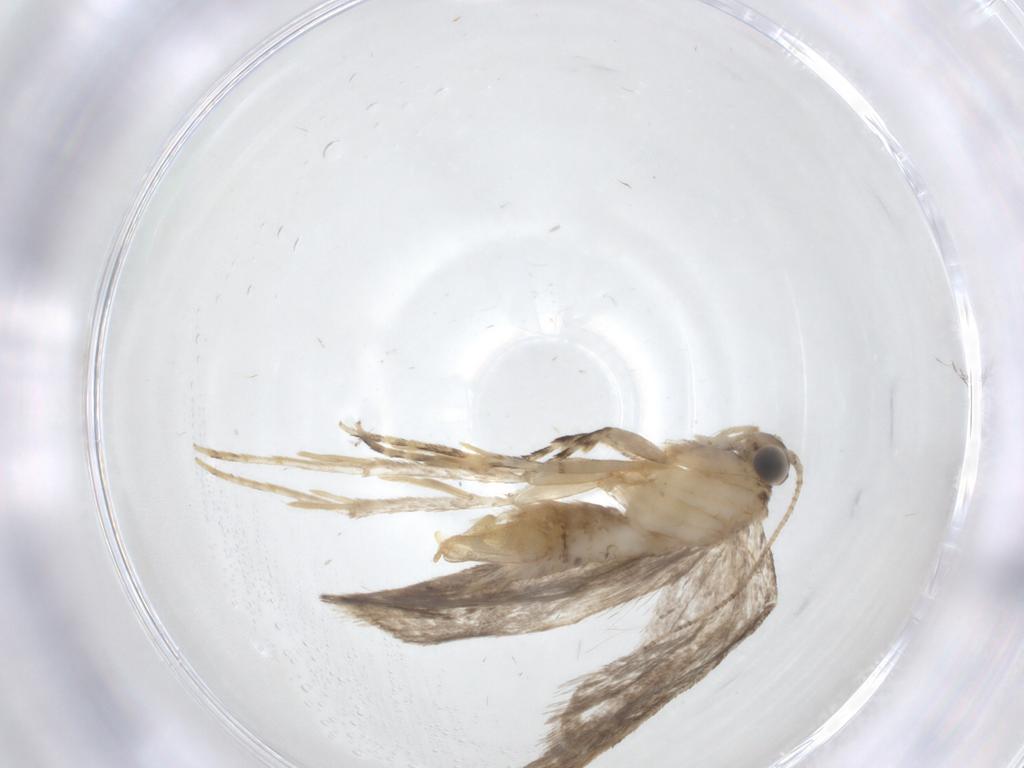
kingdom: Animalia
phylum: Arthropoda
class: Insecta
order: Lepidoptera
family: Tineidae
